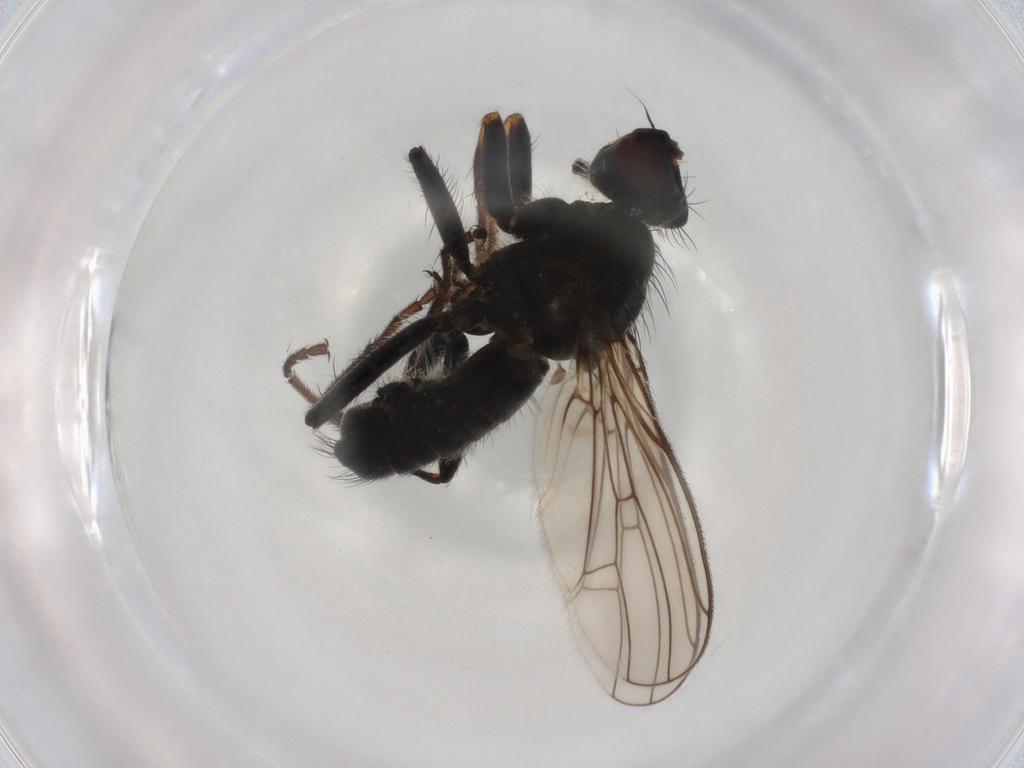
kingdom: Animalia
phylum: Arthropoda
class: Insecta
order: Diptera
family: Scathophagidae
